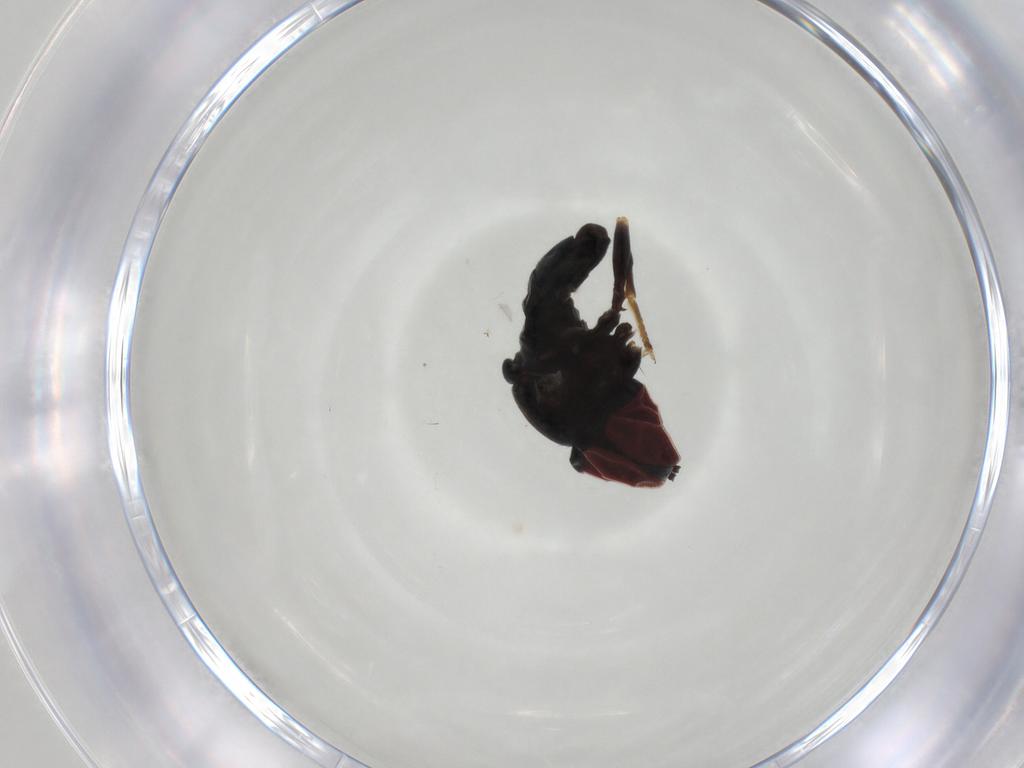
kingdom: Animalia
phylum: Arthropoda
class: Insecta
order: Diptera
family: Pipunculidae
